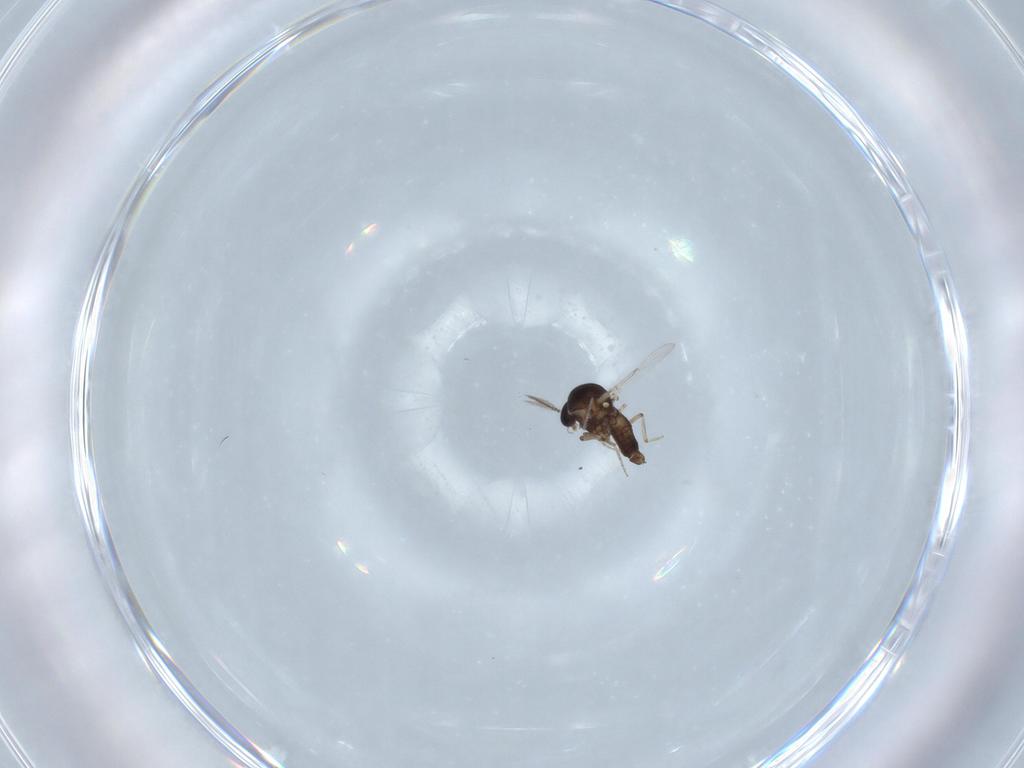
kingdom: Animalia
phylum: Arthropoda
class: Insecta
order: Diptera
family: Ceratopogonidae
